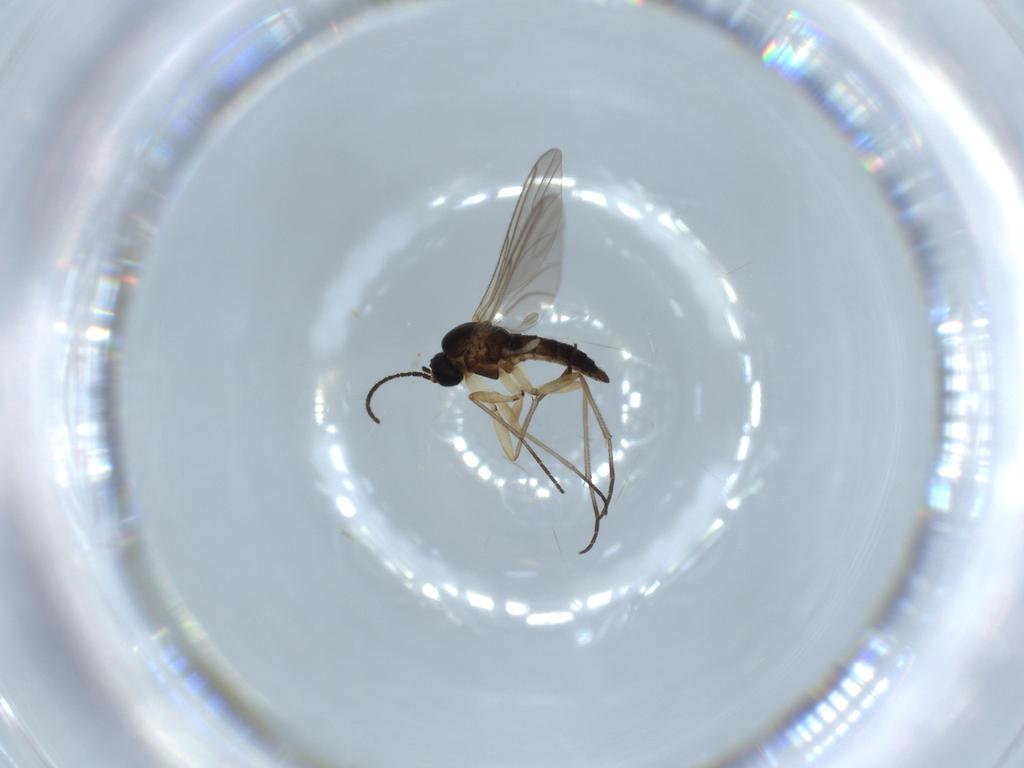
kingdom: Animalia
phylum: Arthropoda
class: Insecta
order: Diptera
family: Sciaridae
